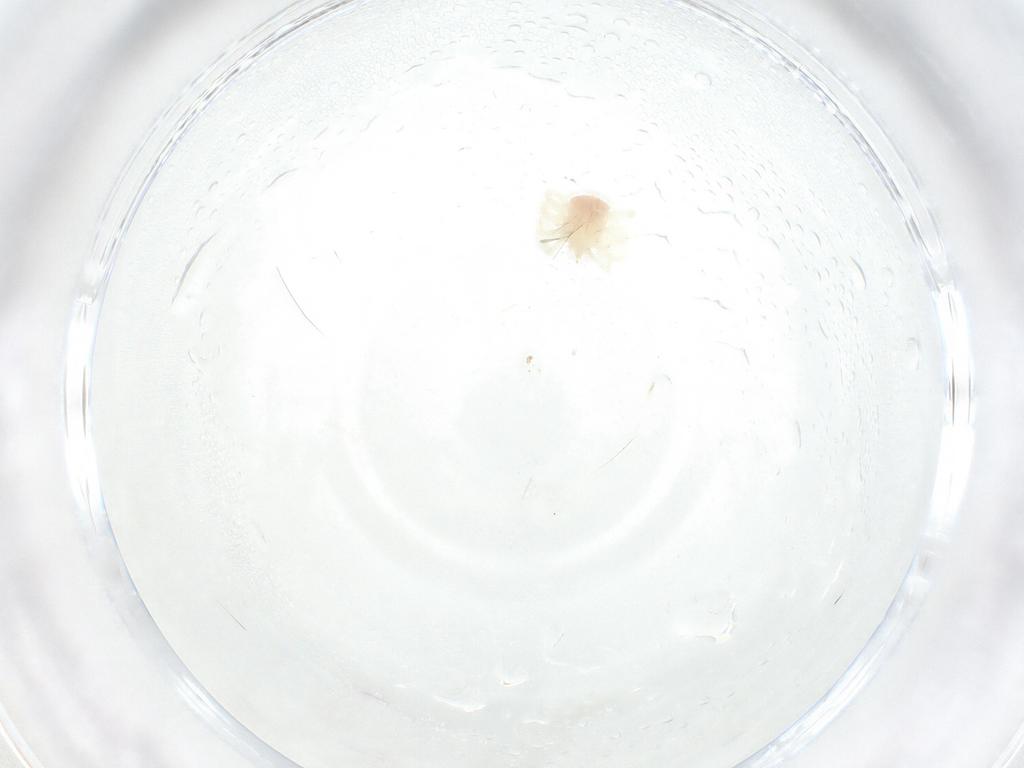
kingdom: Animalia
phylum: Arthropoda
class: Arachnida
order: Trombidiformes
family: Anystidae
